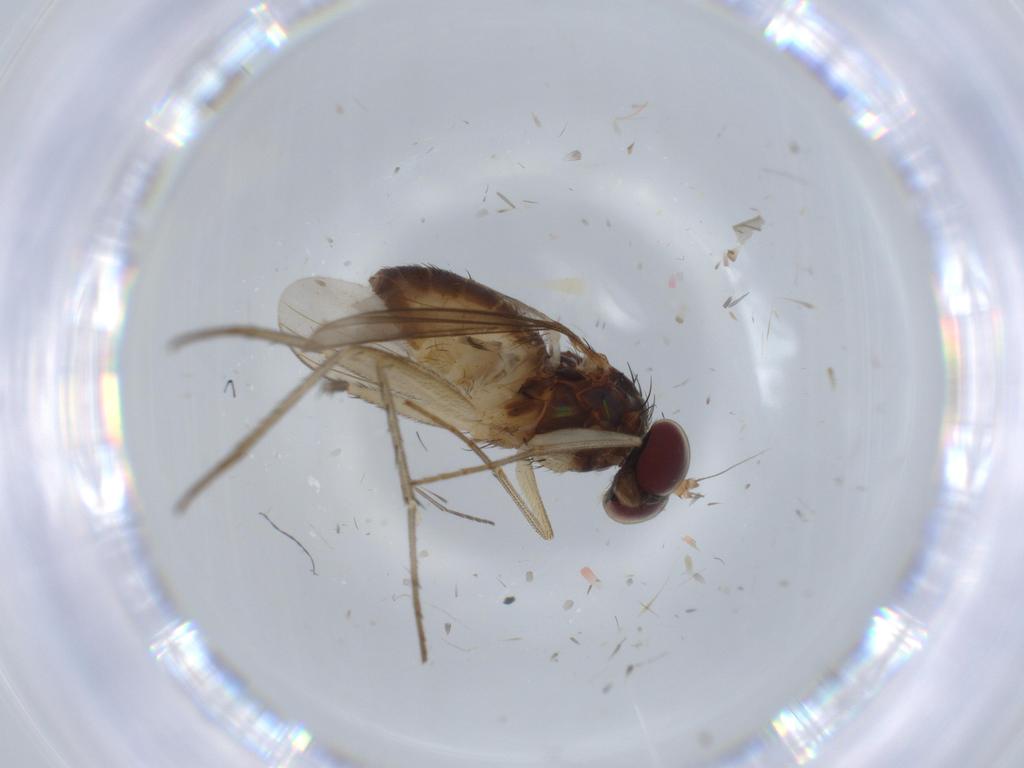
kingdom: Animalia
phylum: Arthropoda
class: Insecta
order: Diptera
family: Dolichopodidae
